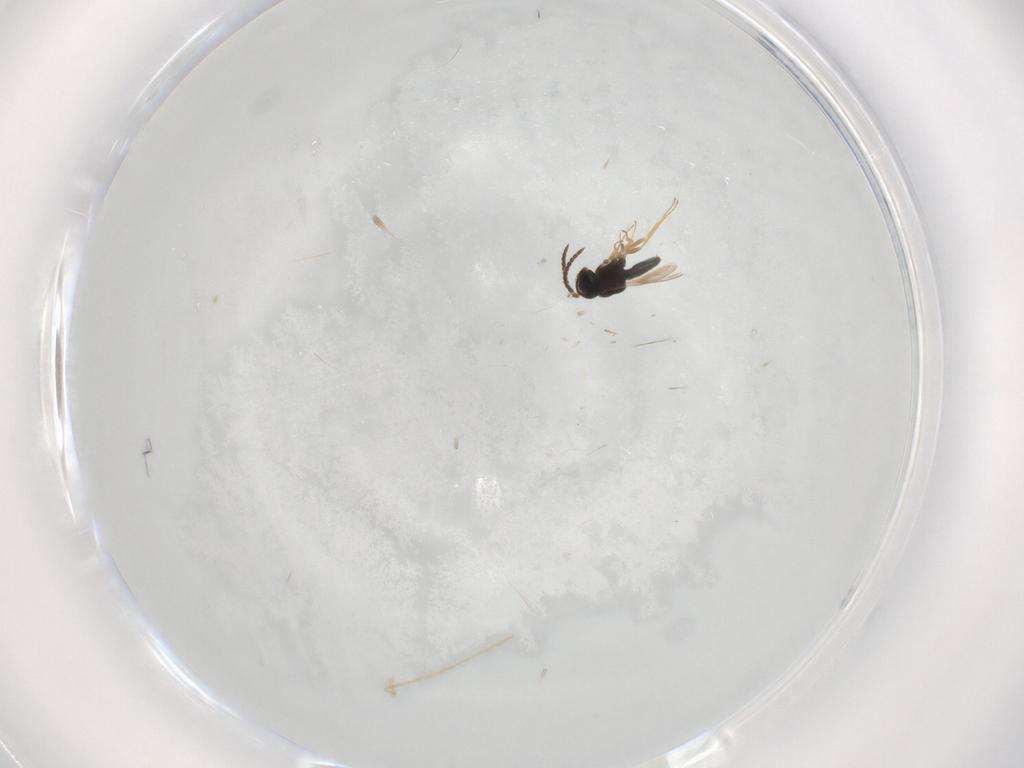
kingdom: Animalia
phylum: Arthropoda
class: Insecta
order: Hymenoptera
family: Scelionidae
